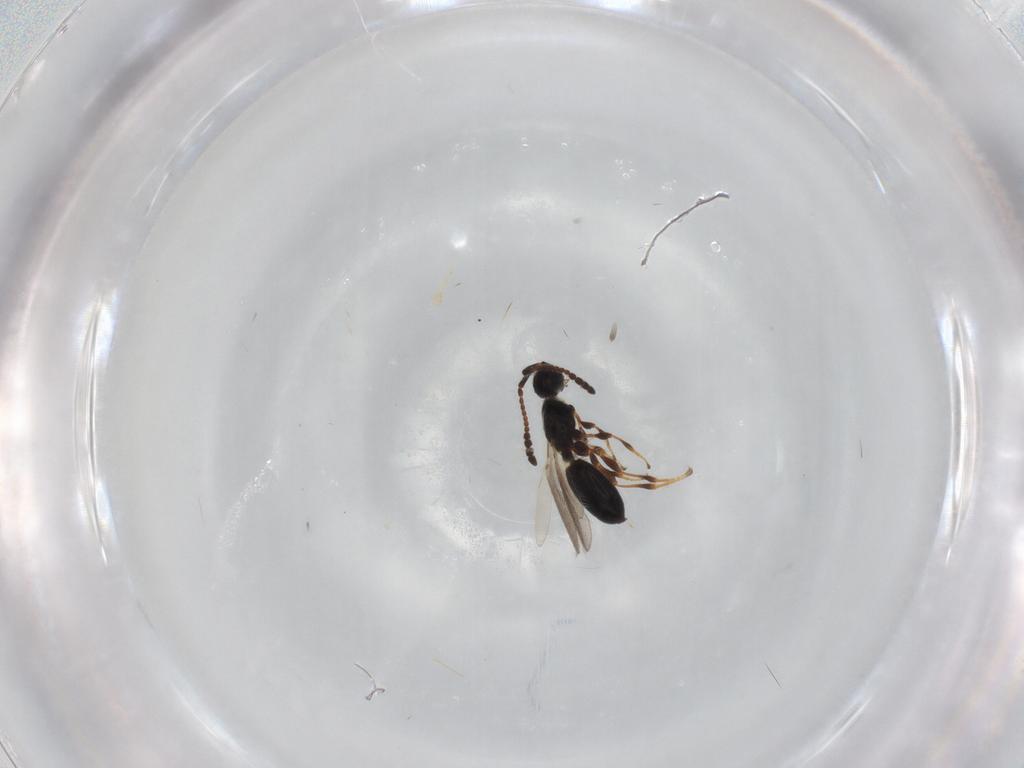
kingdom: Animalia
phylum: Arthropoda
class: Insecta
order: Hymenoptera
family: Diapriidae
